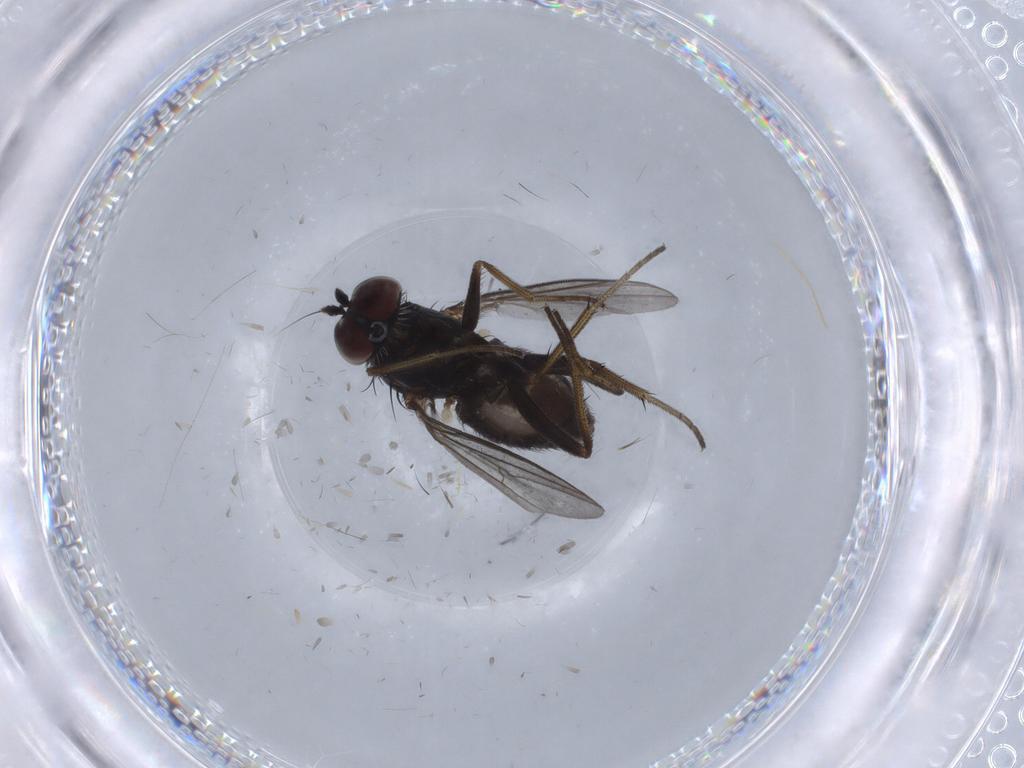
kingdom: Animalia
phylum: Arthropoda
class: Insecta
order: Diptera
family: Dolichopodidae
